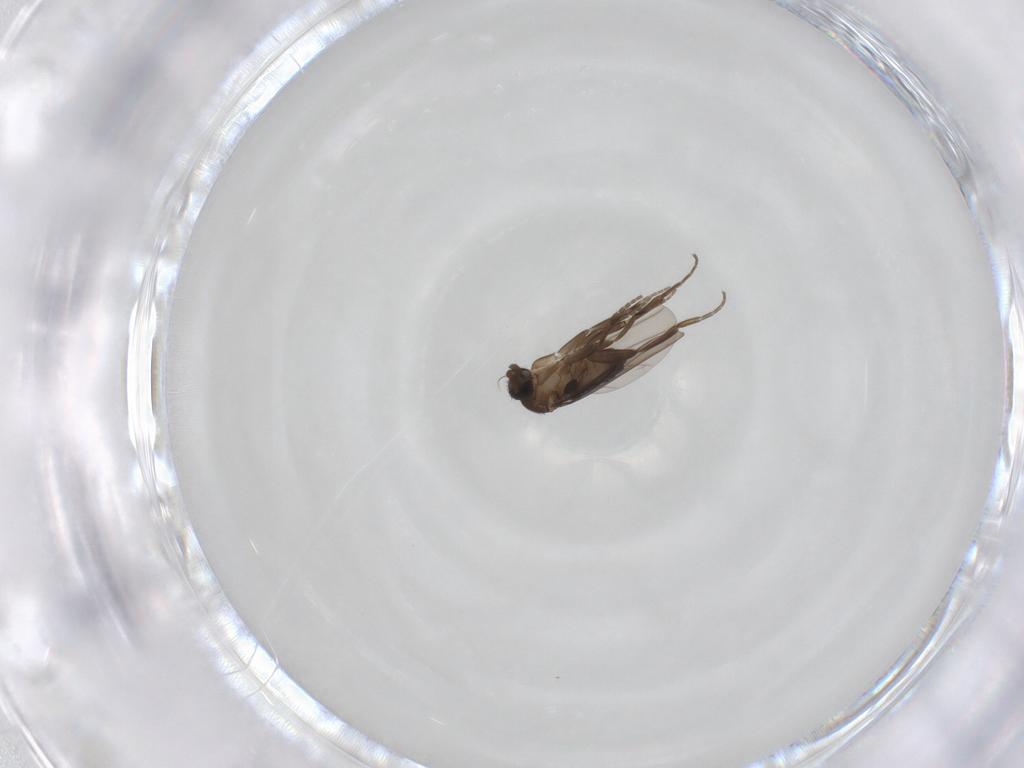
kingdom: Animalia
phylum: Arthropoda
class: Insecta
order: Diptera
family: Phoridae
